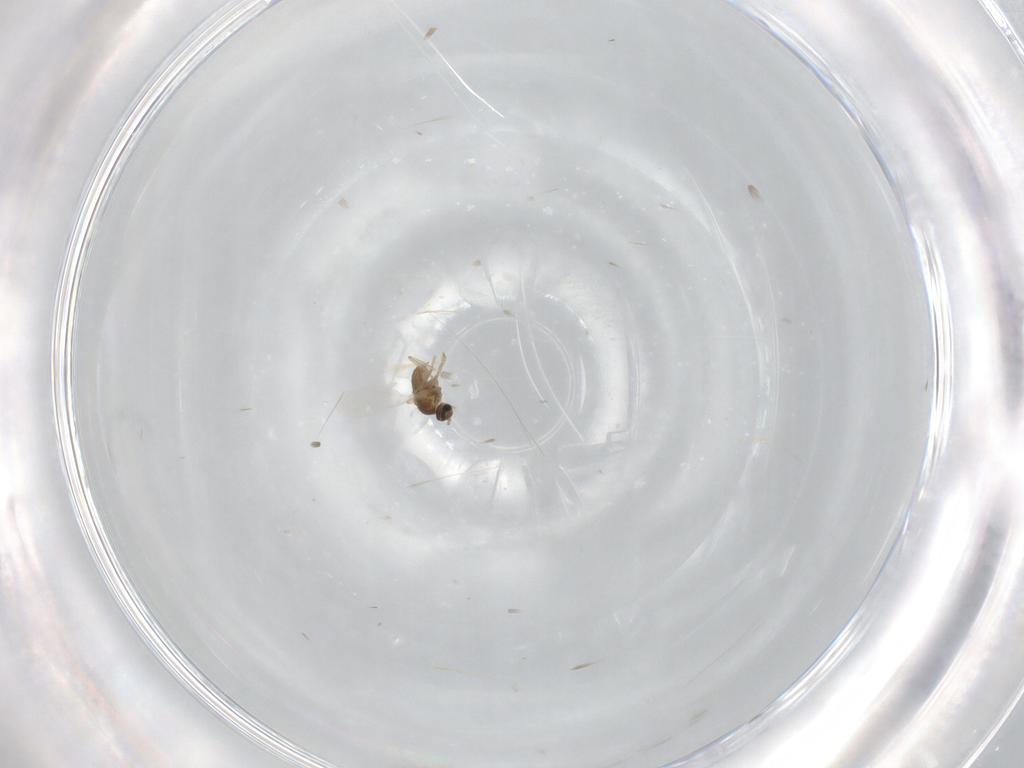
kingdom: Animalia
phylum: Arthropoda
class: Insecta
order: Diptera
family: Cecidomyiidae
